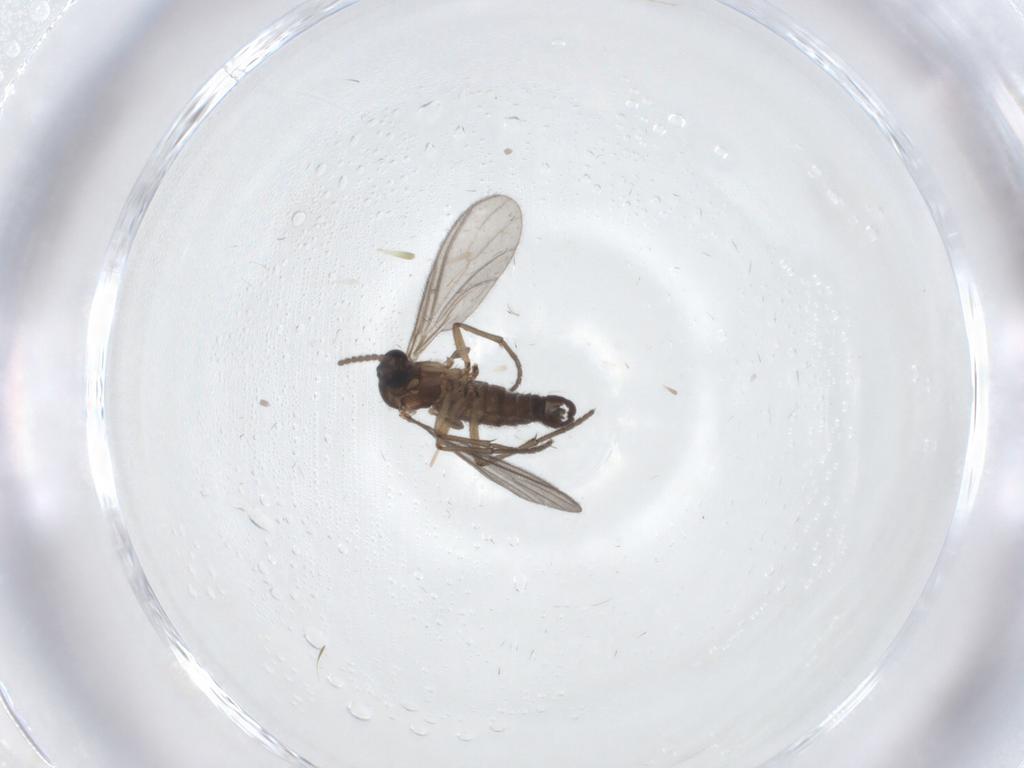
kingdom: Animalia
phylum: Arthropoda
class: Insecta
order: Diptera
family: Sciaridae
